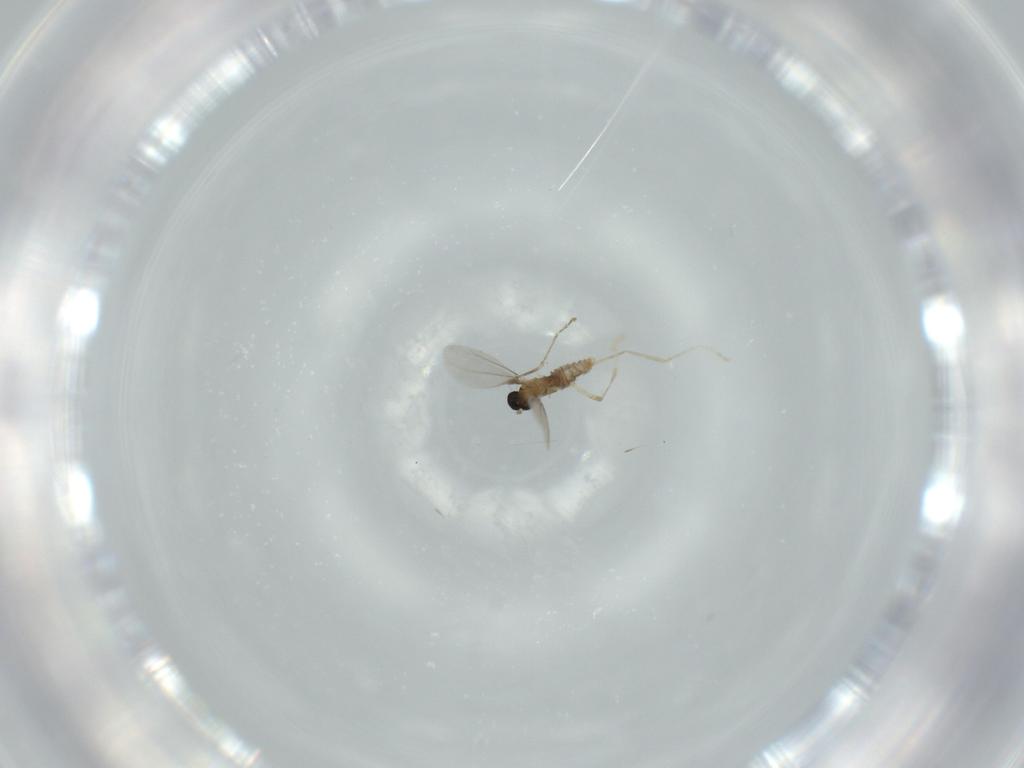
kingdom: Animalia
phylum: Arthropoda
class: Insecta
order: Diptera
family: Cecidomyiidae
